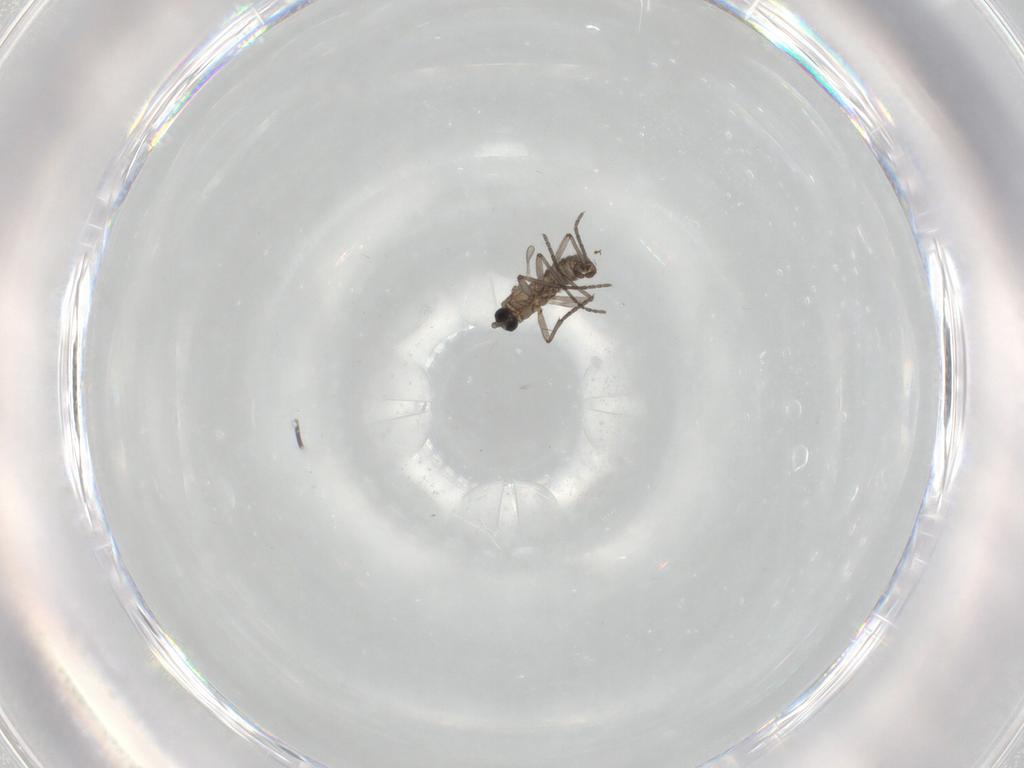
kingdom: Animalia
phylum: Arthropoda
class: Insecta
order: Diptera
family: Sciaridae
